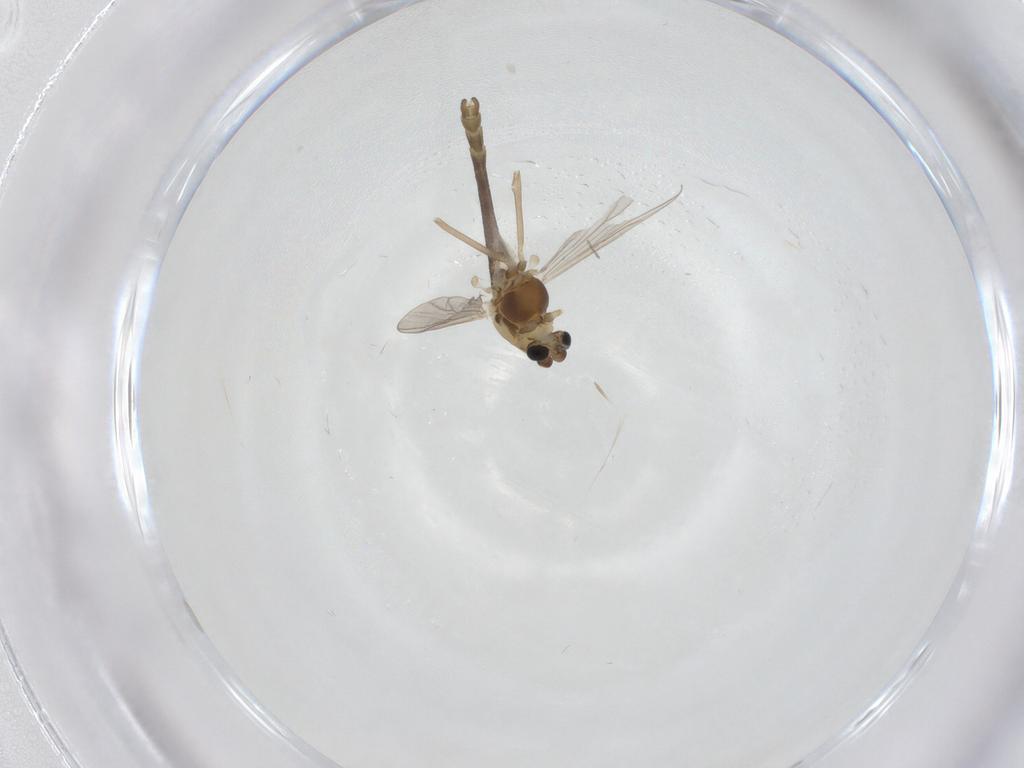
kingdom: Animalia
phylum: Arthropoda
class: Insecta
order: Diptera
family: Chironomidae
